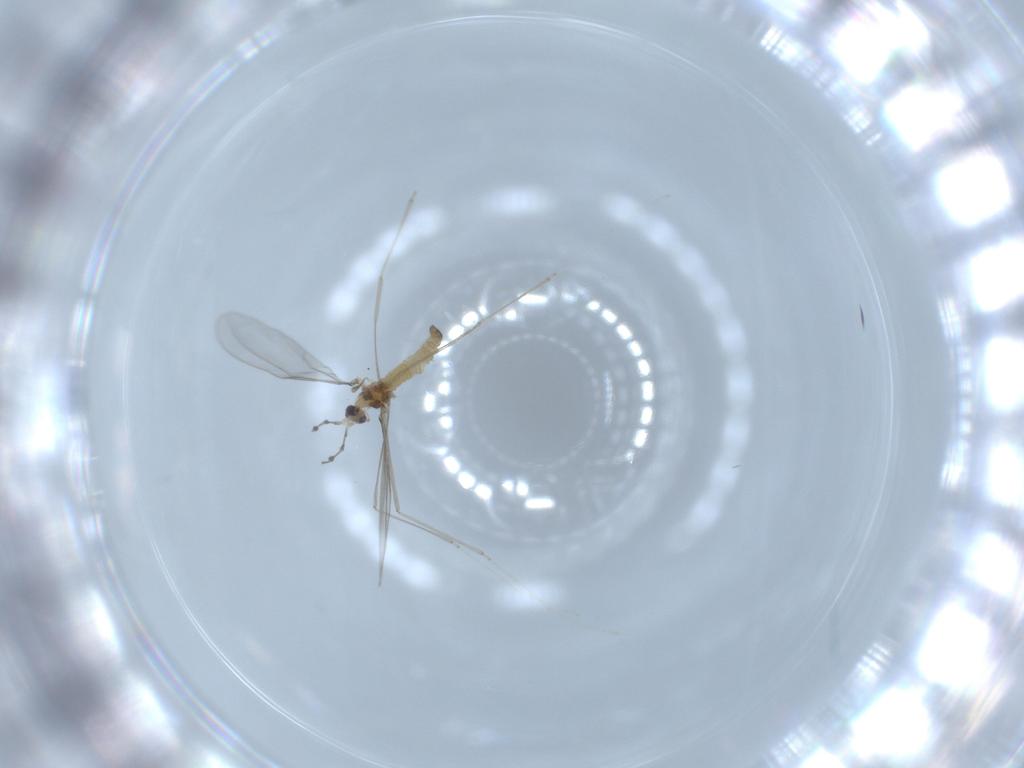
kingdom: Animalia
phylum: Arthropoda
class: Insecta
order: Diptera
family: Cecidomyiidae
